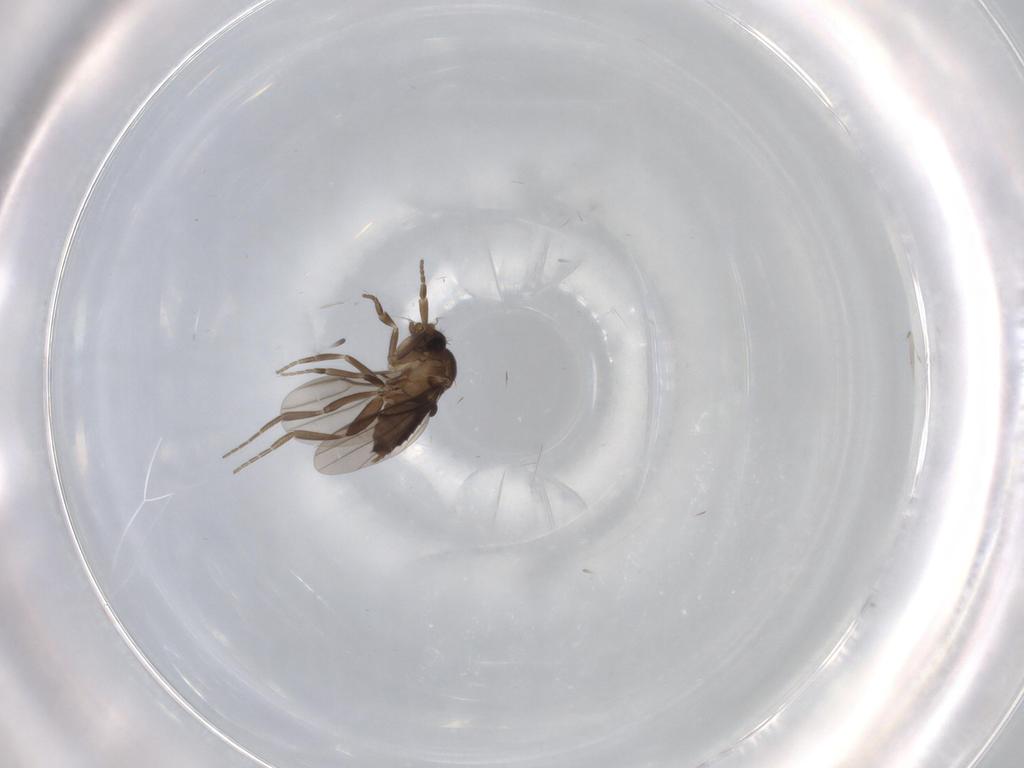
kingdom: Animalia
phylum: Arthropoda
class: Insecta
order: Diptera
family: Phoridae
